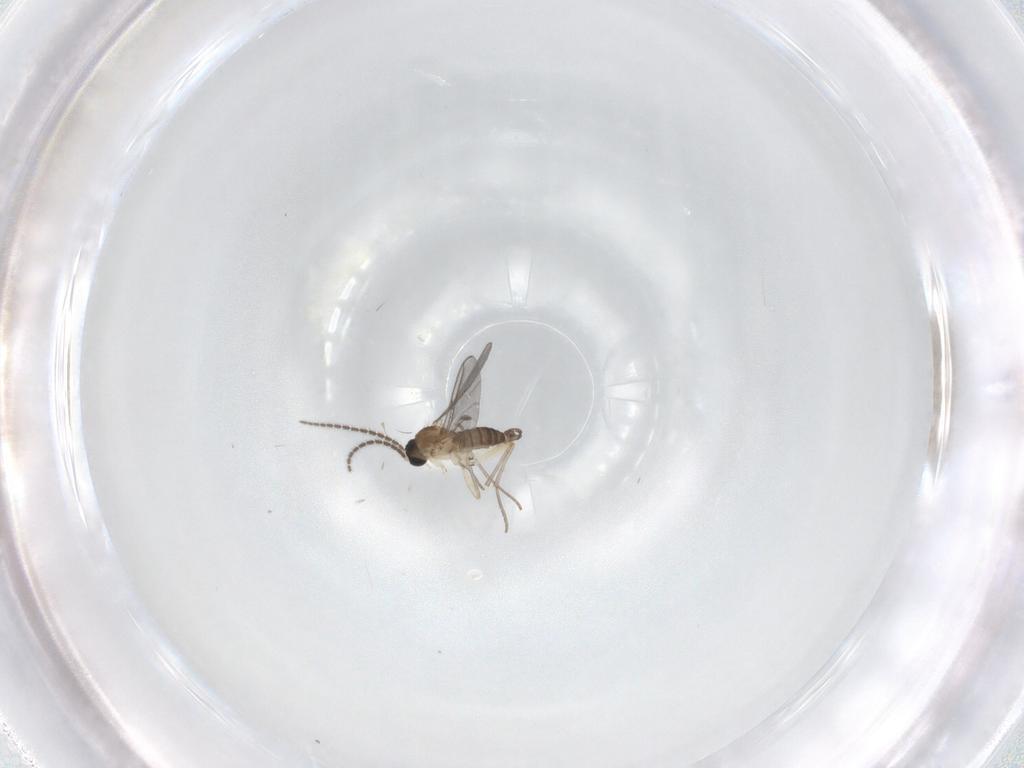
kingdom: Animalia
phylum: Arthropoda
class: Insecta
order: Diptera
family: Sciaridae
